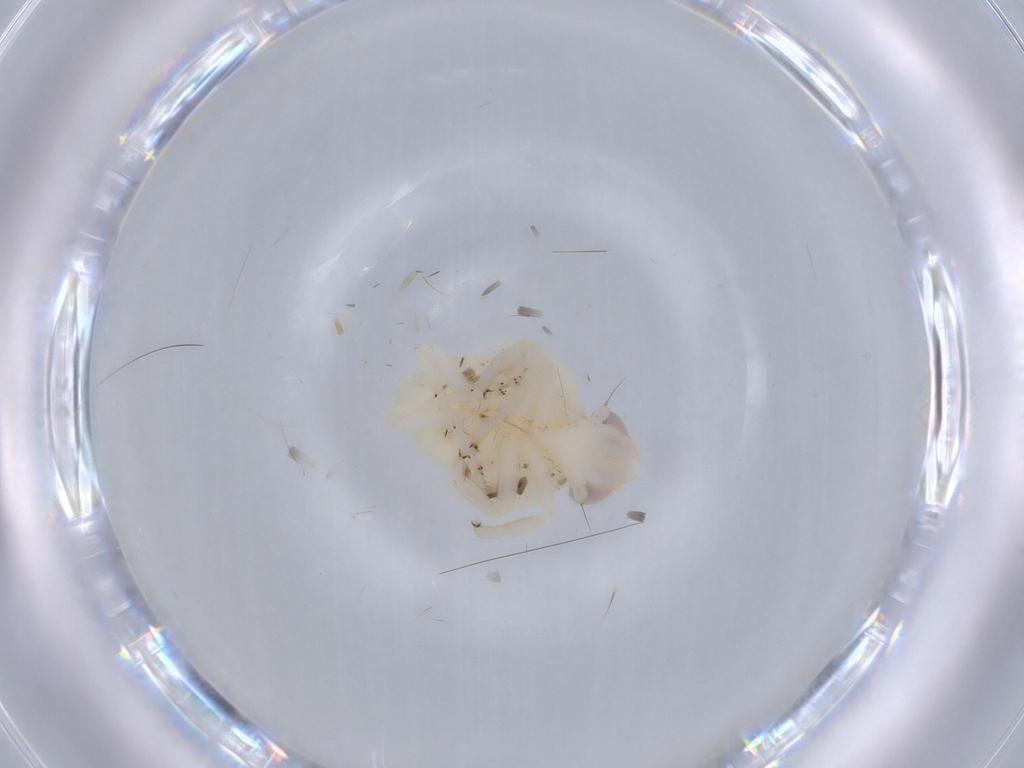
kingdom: Animalia
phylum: Arthropoda
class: Insecta
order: Hemiptera
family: Nogodinidae
